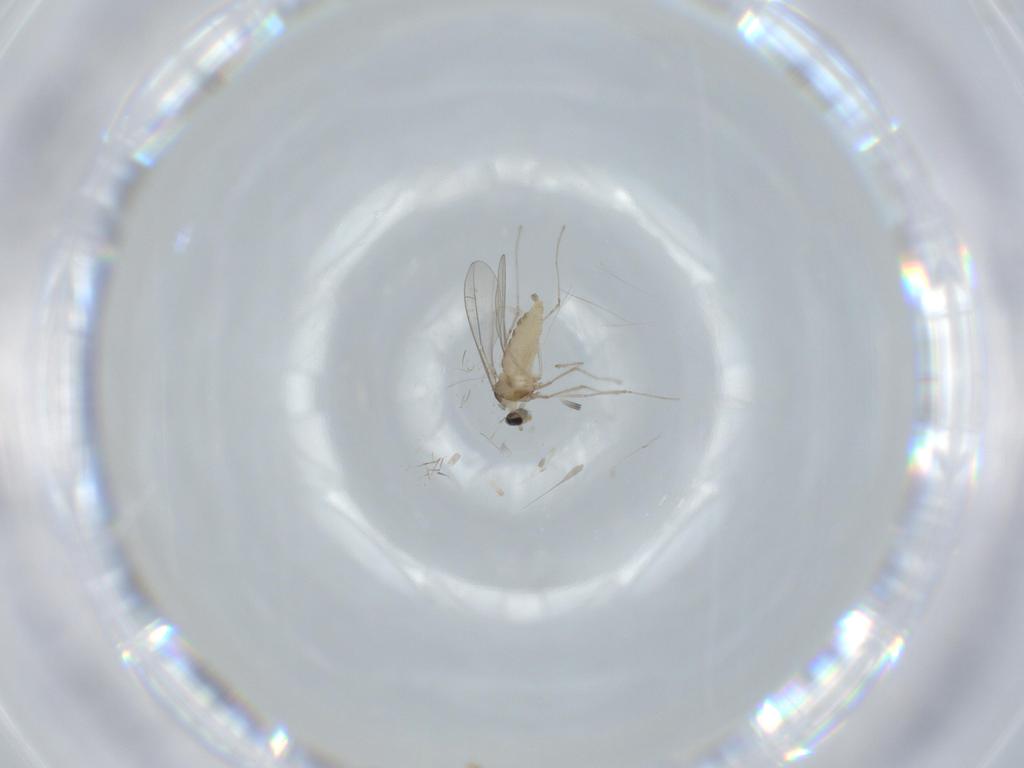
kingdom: Animalia
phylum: Arthropoda
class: Insecta
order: Diptera
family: Cecidomyiidae
